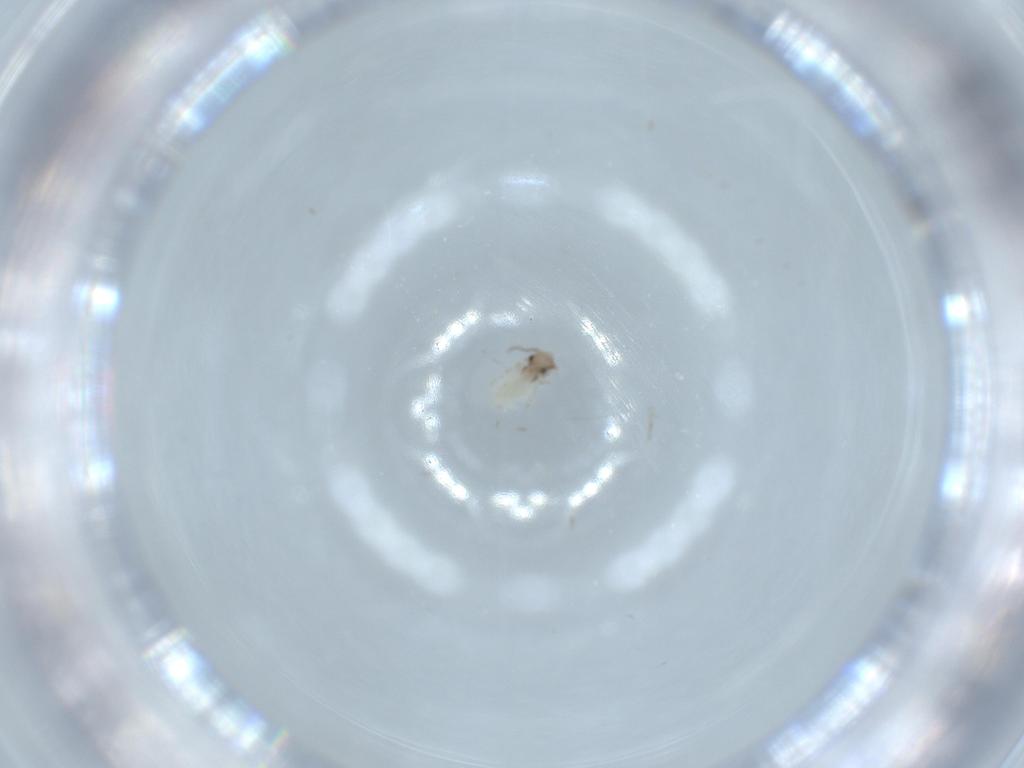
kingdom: Animalia
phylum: Arthropoda
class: Insecta
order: Psocodea
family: Lepidopsocidae
